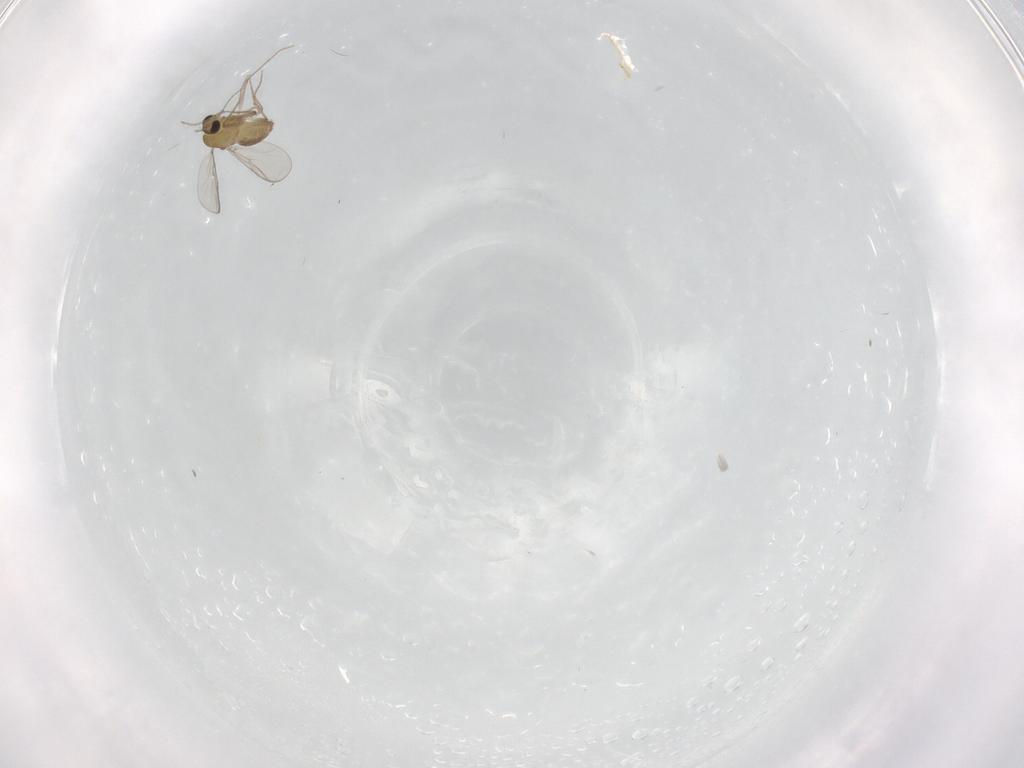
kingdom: Animalia
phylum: Arthropoda
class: Insecta
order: Diptera
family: Chironomidae
